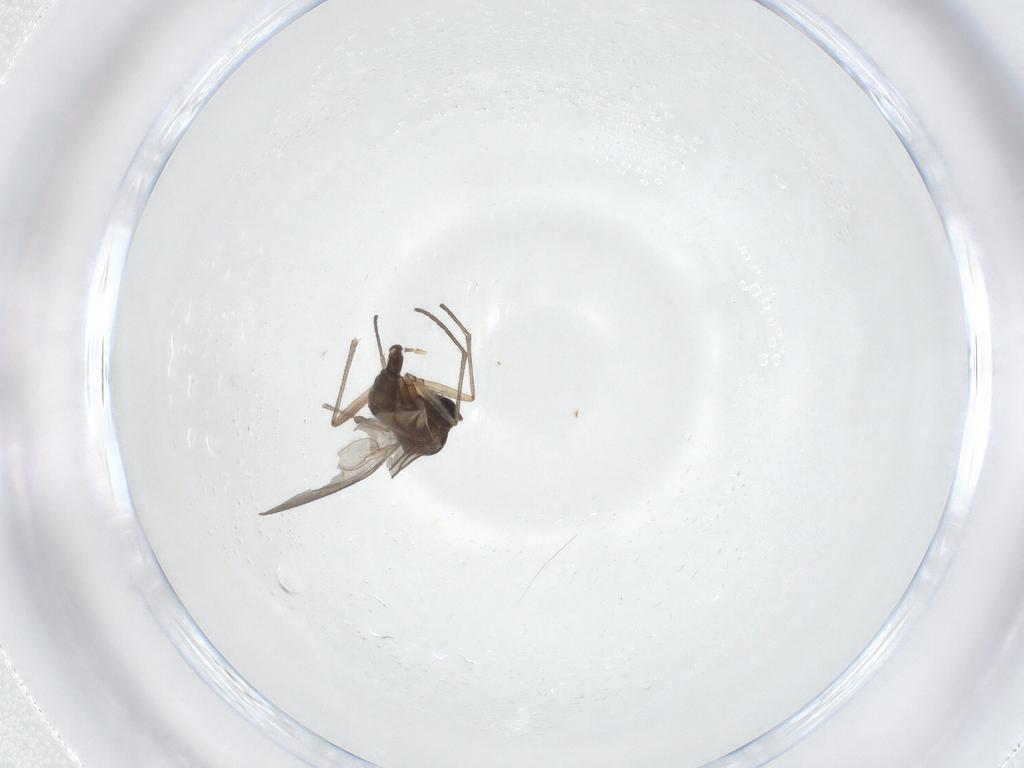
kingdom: Animalia
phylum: Arthropoda
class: Insecta
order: Diptera
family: Sciaridae
